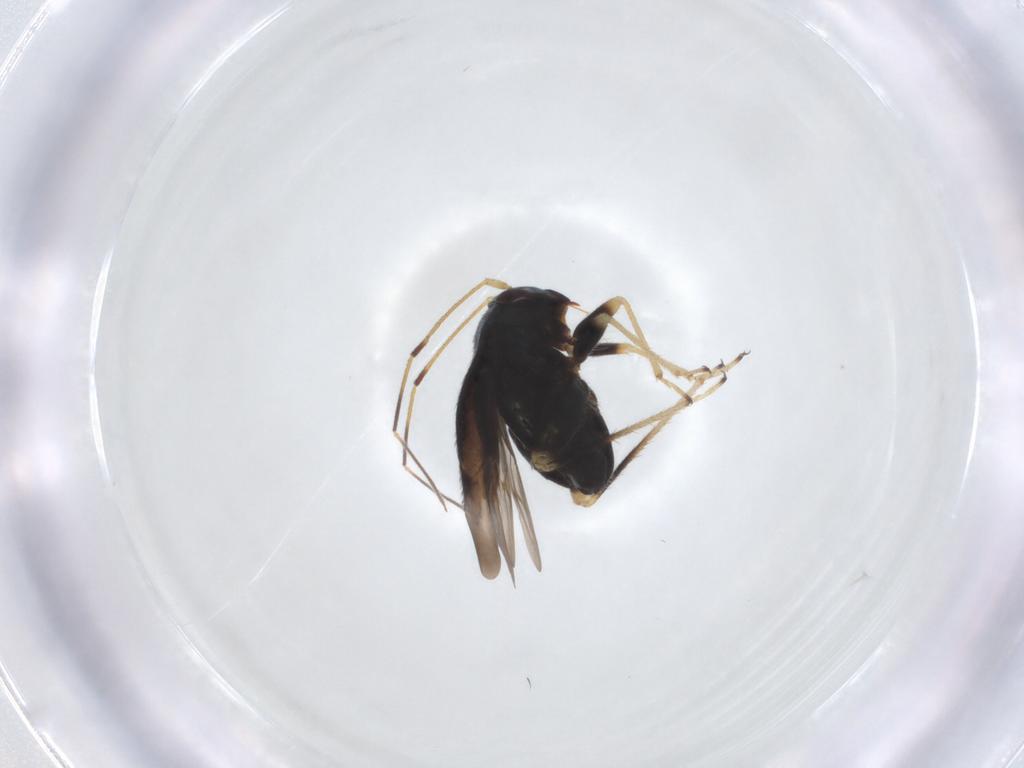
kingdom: Animalia
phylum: Arthropoda
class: Insecta
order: Hemiptera
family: Miridae
